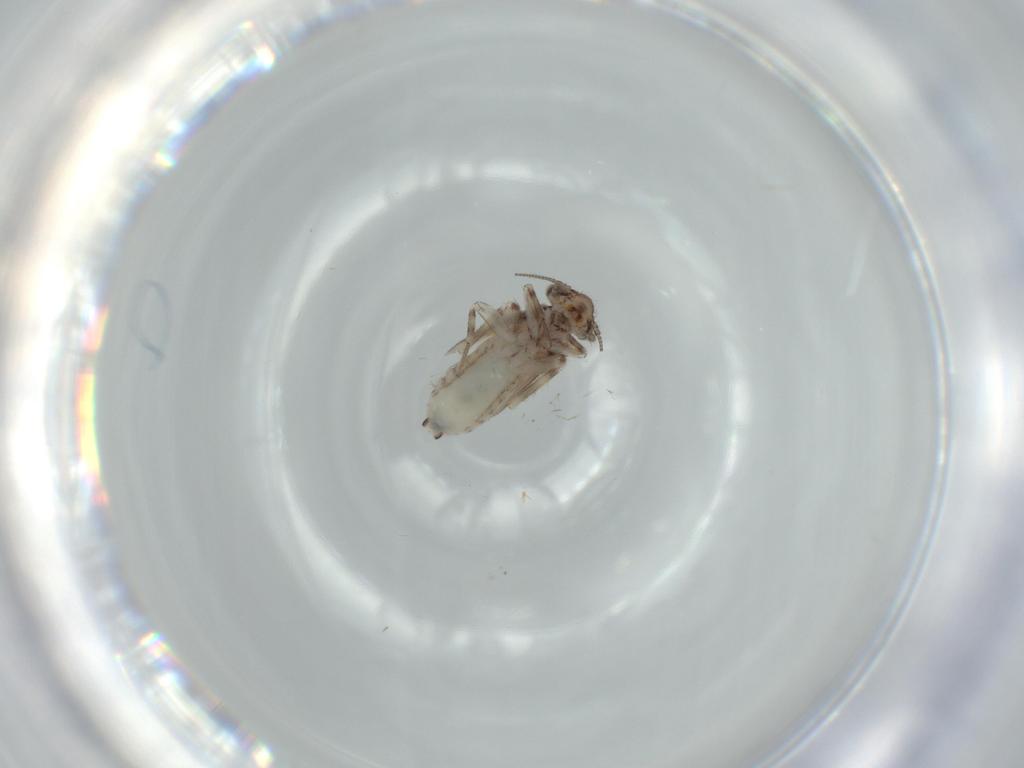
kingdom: Animalia
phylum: Arthropoda
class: Insecta
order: Psocodea
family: Lepidopsocidae
